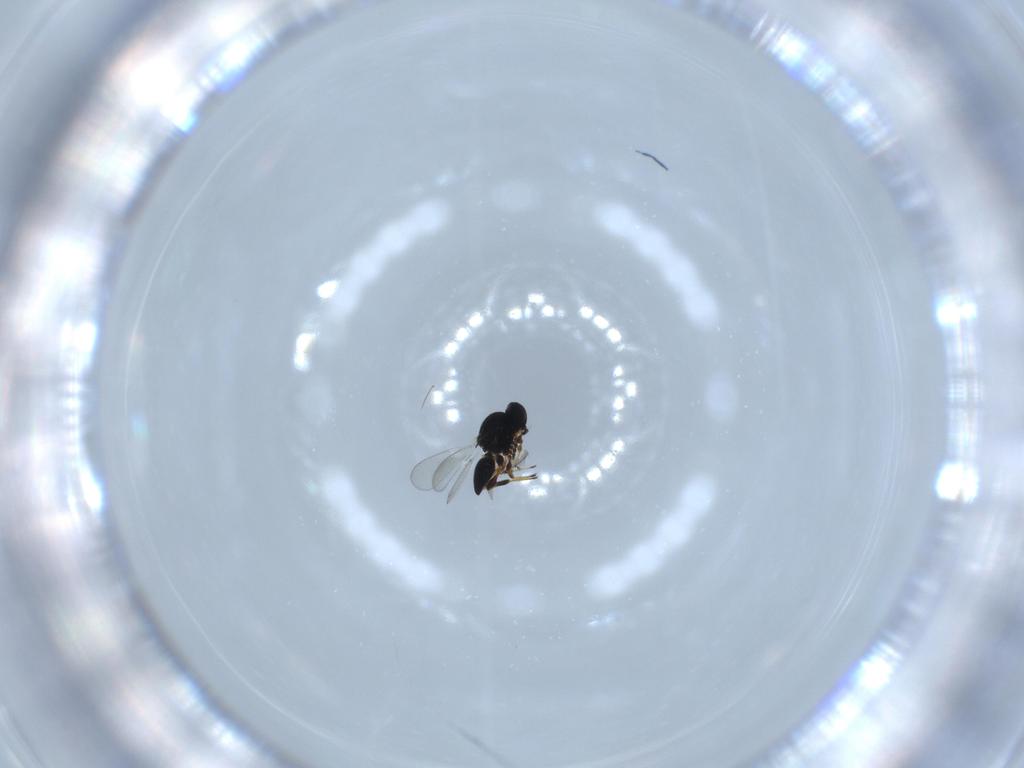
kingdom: Animalia
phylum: Arthropoda
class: Insecta
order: Hymenoptera
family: Platygastridae
